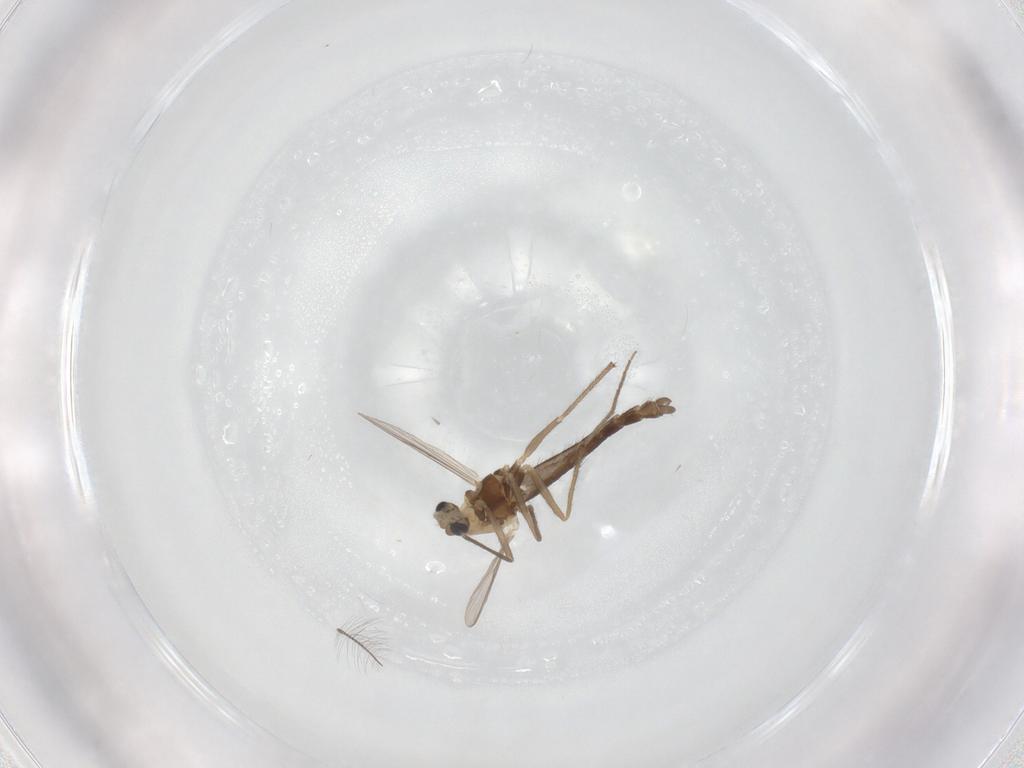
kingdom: Animalia
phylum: Arthropoda
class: Insecta
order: Diptera
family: Chironomidae
